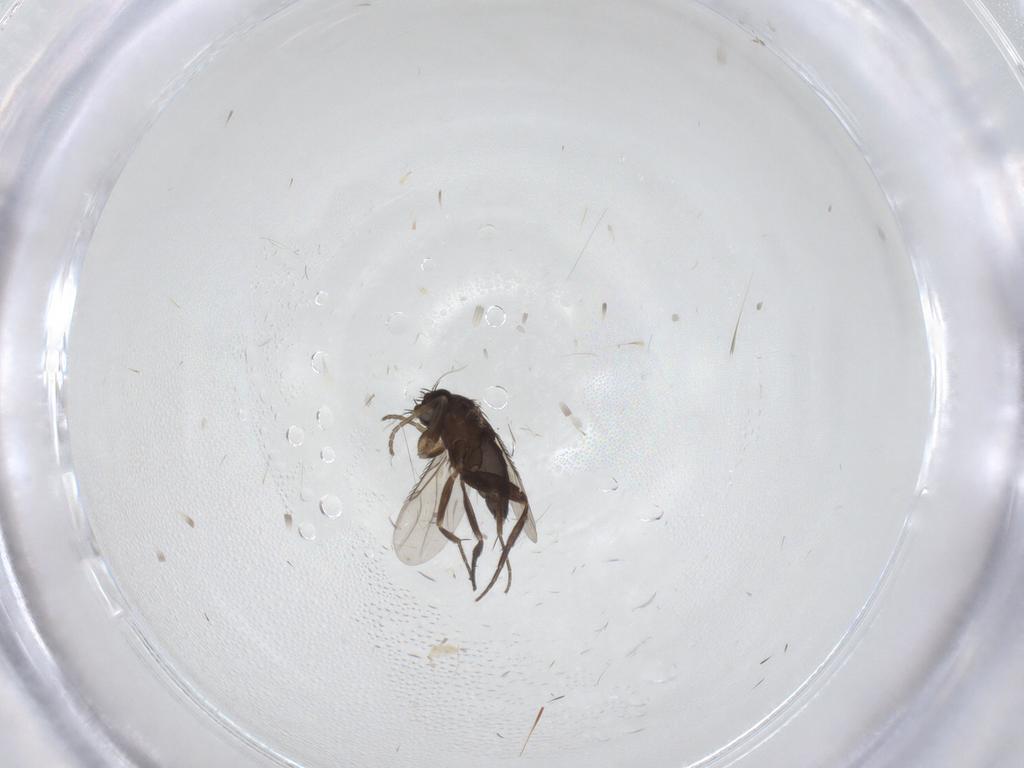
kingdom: Animalia
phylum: Arthropoda
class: Insecta
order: Diptera
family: Phoridae
